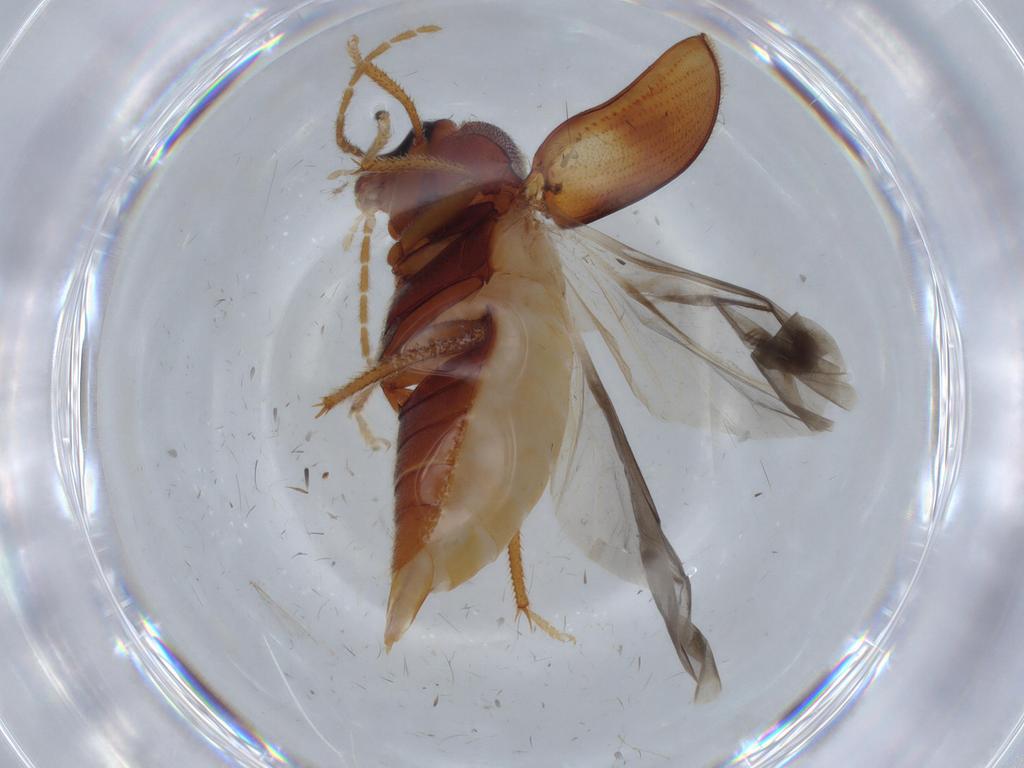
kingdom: Animalia
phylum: Arthropoda
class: Insecta
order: Coleoptera
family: Ptilodactylidae
